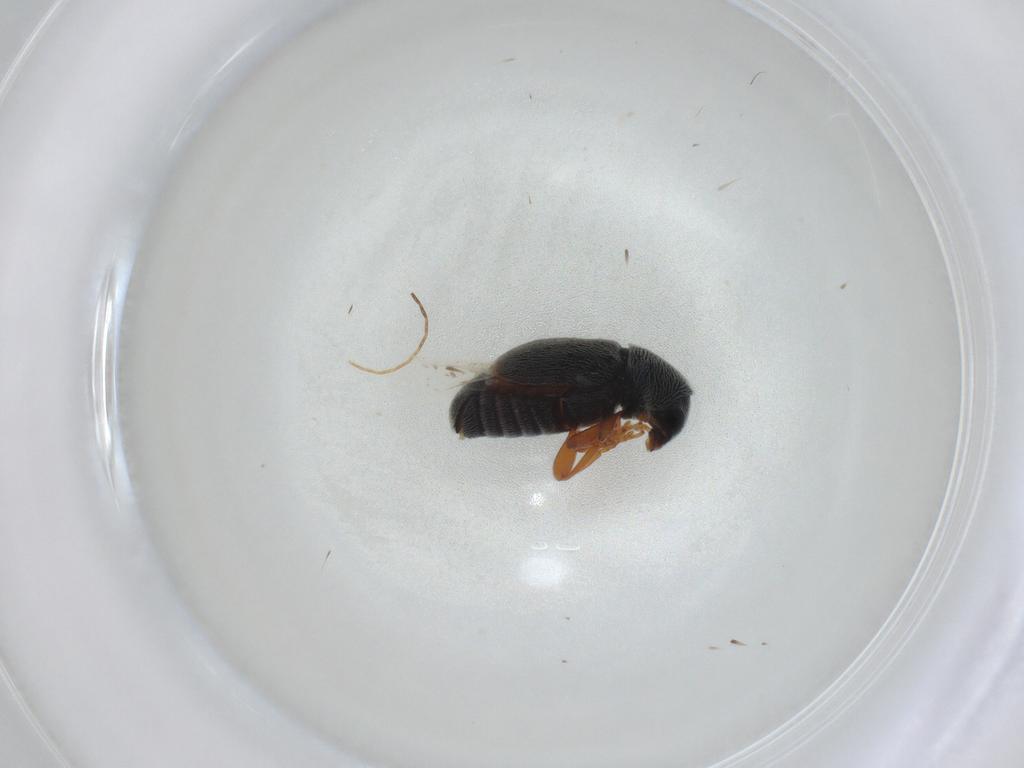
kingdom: Animalia
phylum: Arthropoda
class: Insecta
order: Coleoptera
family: Anthribidae
